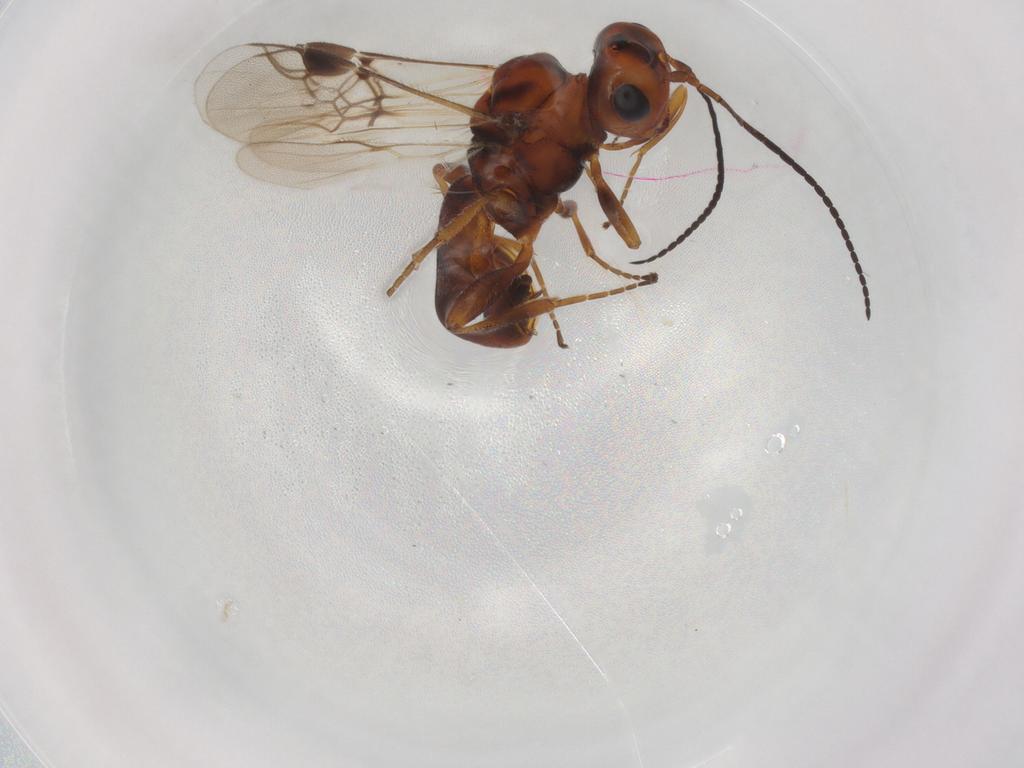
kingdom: Animalia
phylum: Arthropoda
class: Insecta
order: Hymenoptera
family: Braconidae
